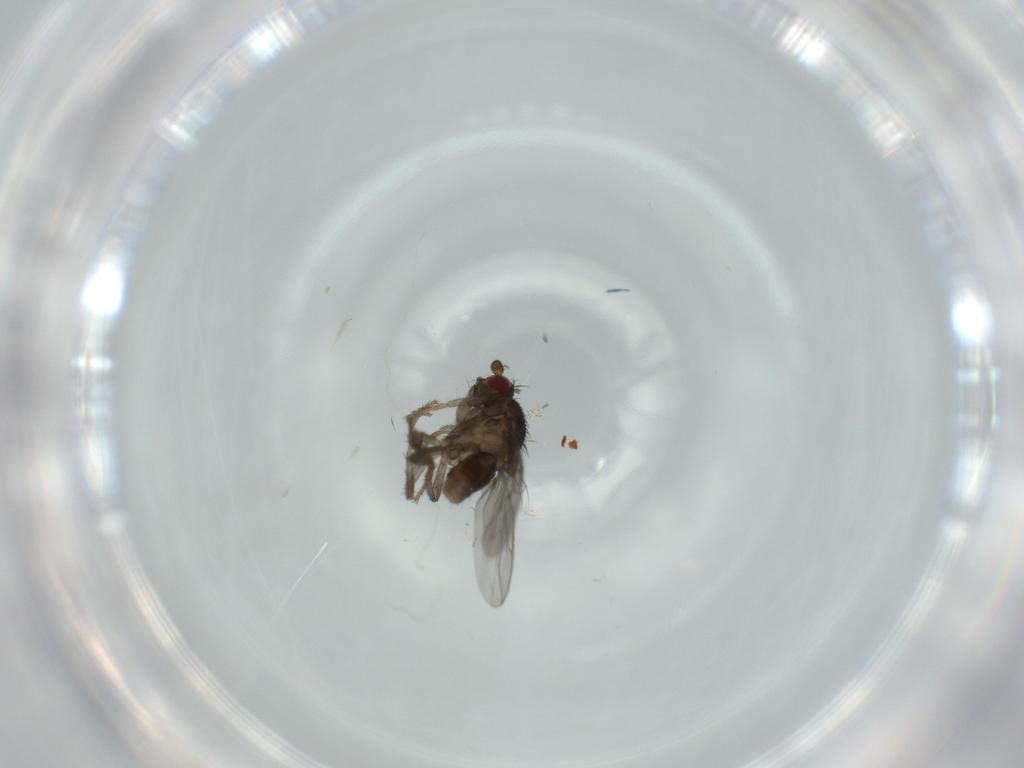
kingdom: Animalia
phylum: Arthropoda
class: Insecta
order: Diptera
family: Sphaeroceridae
